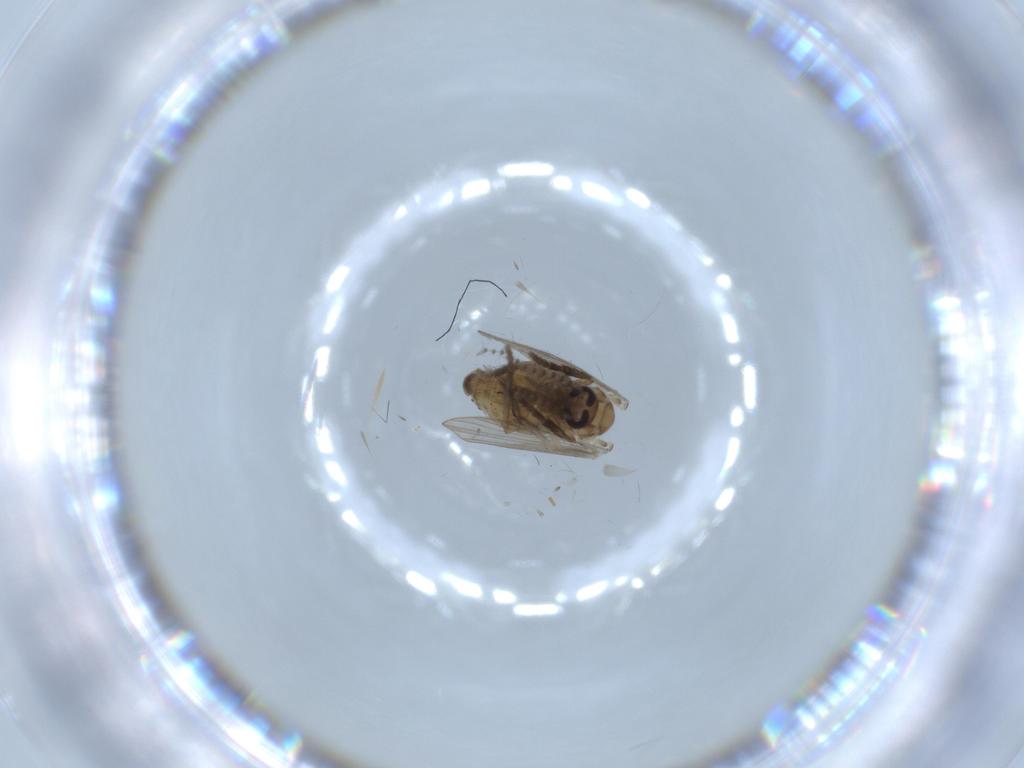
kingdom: Animalia
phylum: Arthropoda
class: Insecta
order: Diptera
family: Psychodidae
